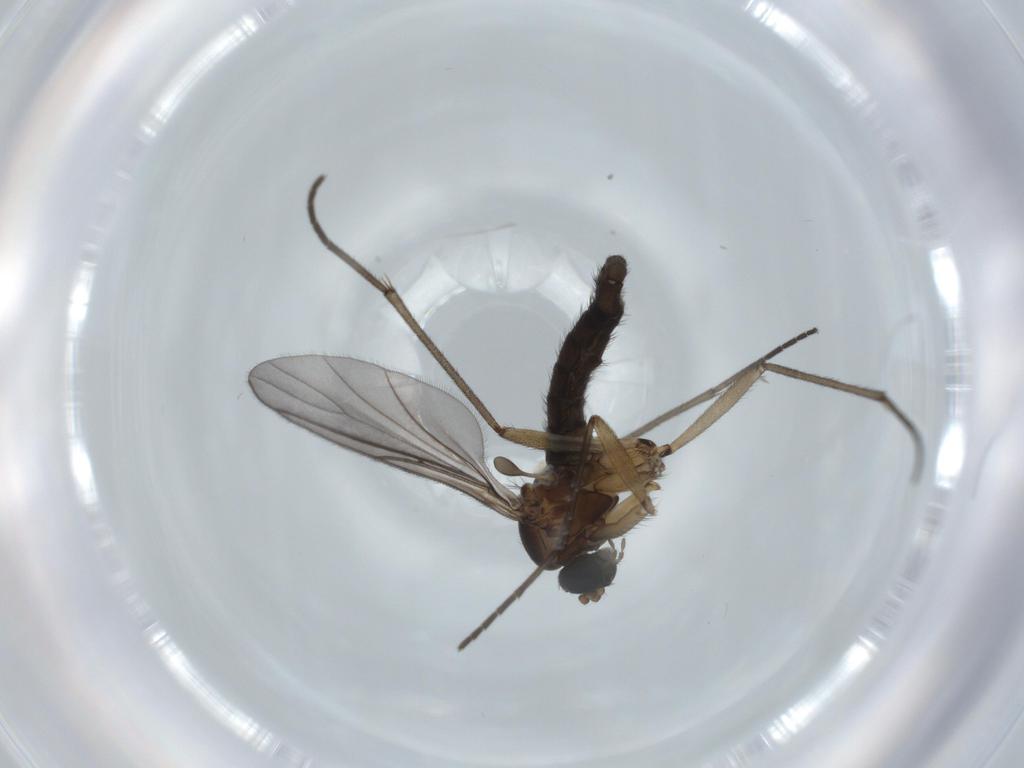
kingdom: Animalia
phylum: Arthropoda
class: Insecta
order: Diptera
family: Sciaridae
